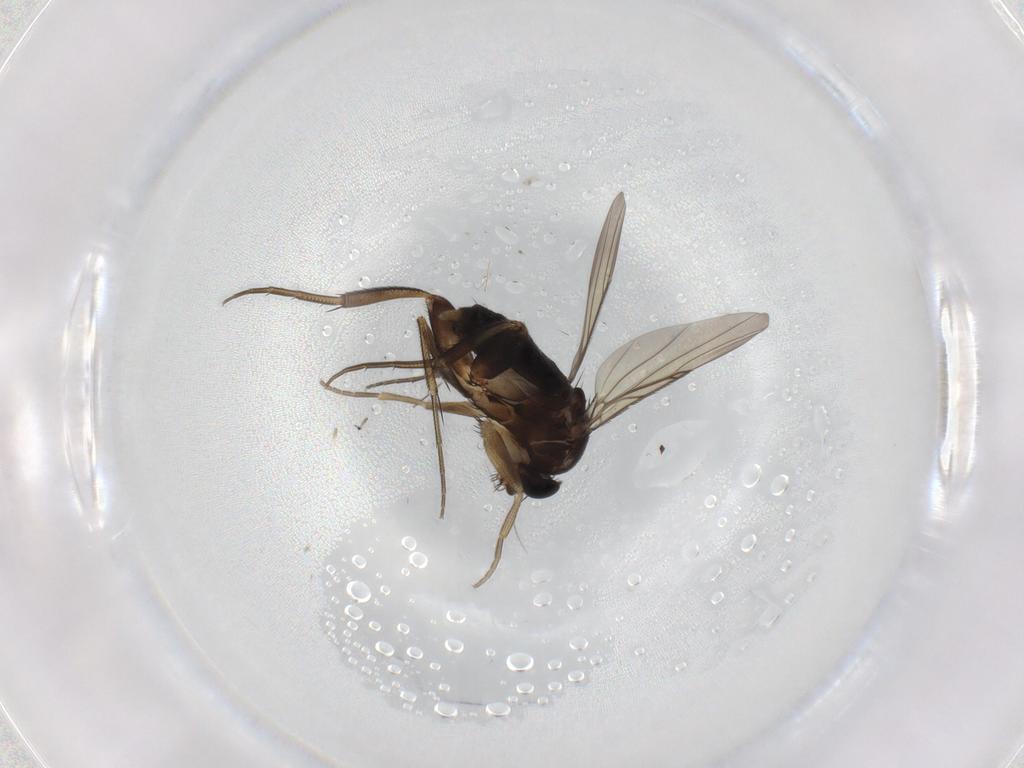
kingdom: Animalia
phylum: Arthropoda
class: Insecta
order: Diptera
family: Phoridae
